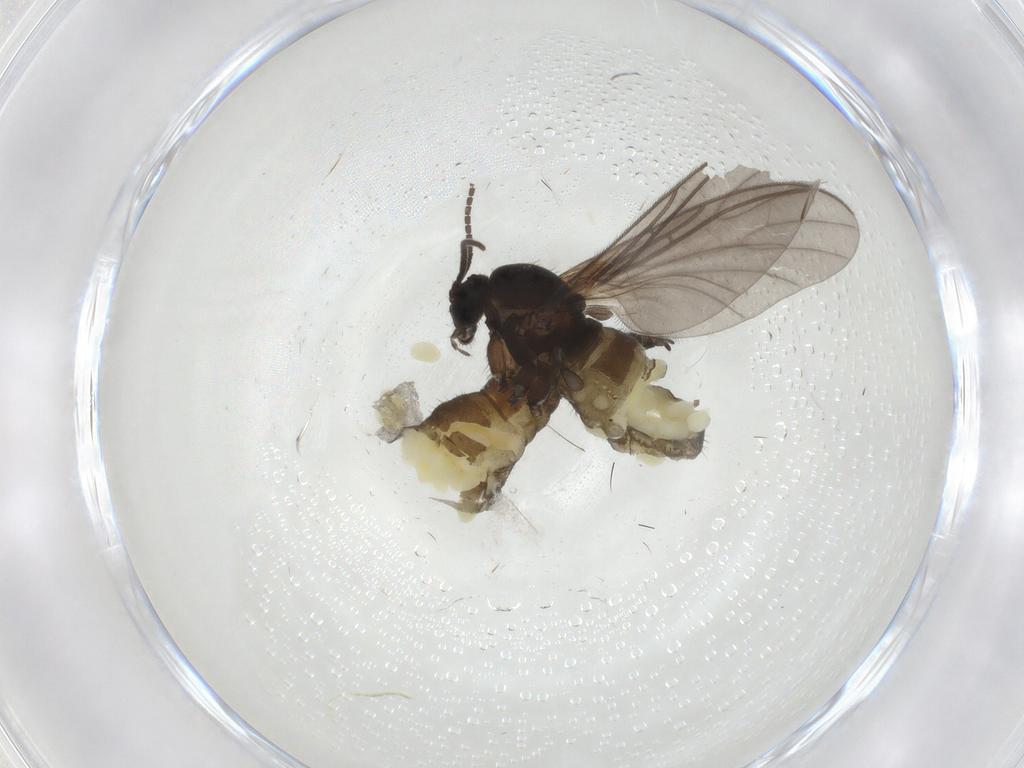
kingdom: Animalia
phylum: Arthropoda
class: Insecta
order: Diptera
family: Sciaridae
